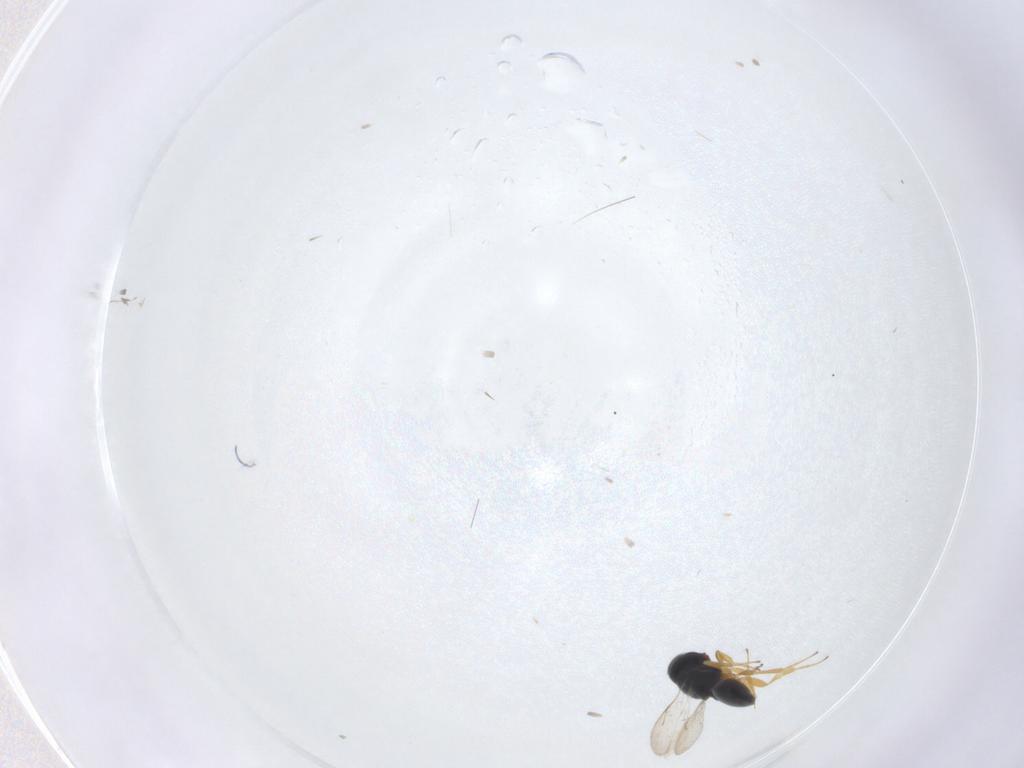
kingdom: Animalia
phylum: Arthropoda
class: Insecta
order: Hymenoptera
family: Scelionidae
